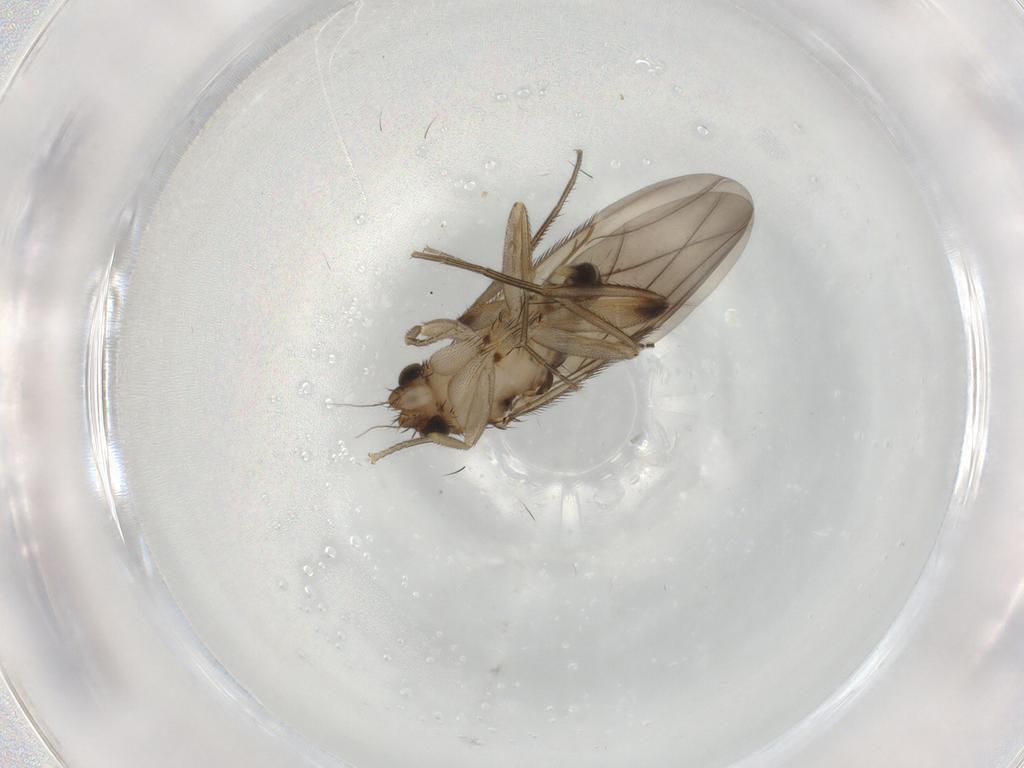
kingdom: Animalia
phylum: Arthropoda
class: Insecta
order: Diptera
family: Phoridae
